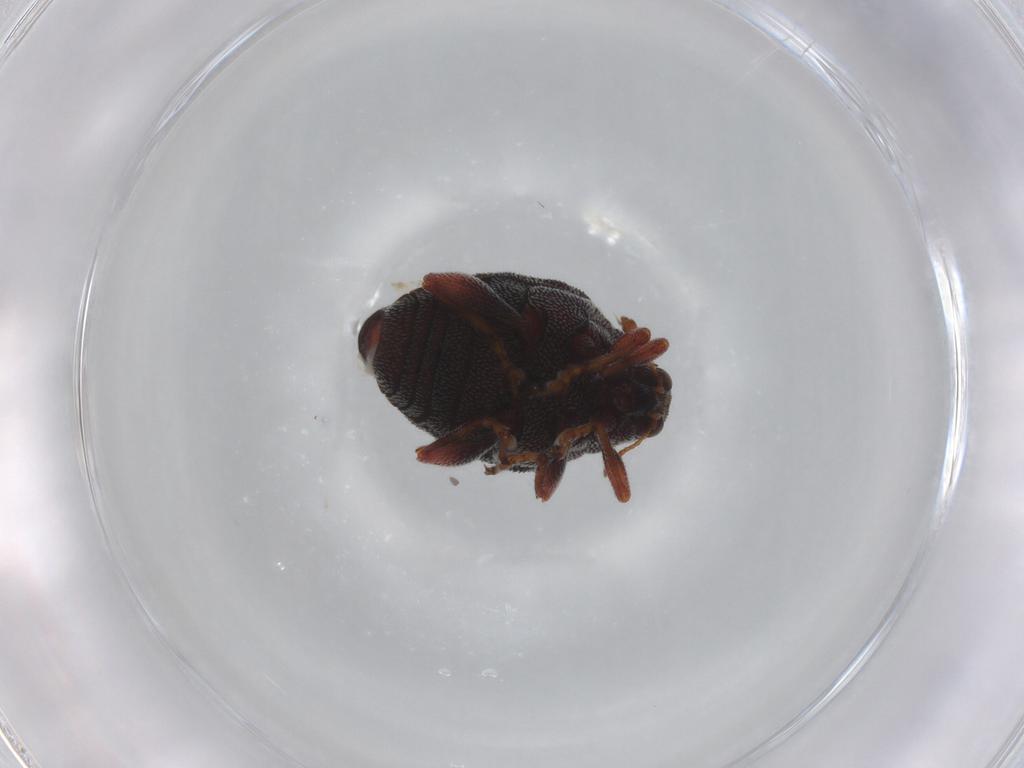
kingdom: Animalia
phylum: Arthropoda
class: Insecta
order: Coleoptera
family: Curculionidae
